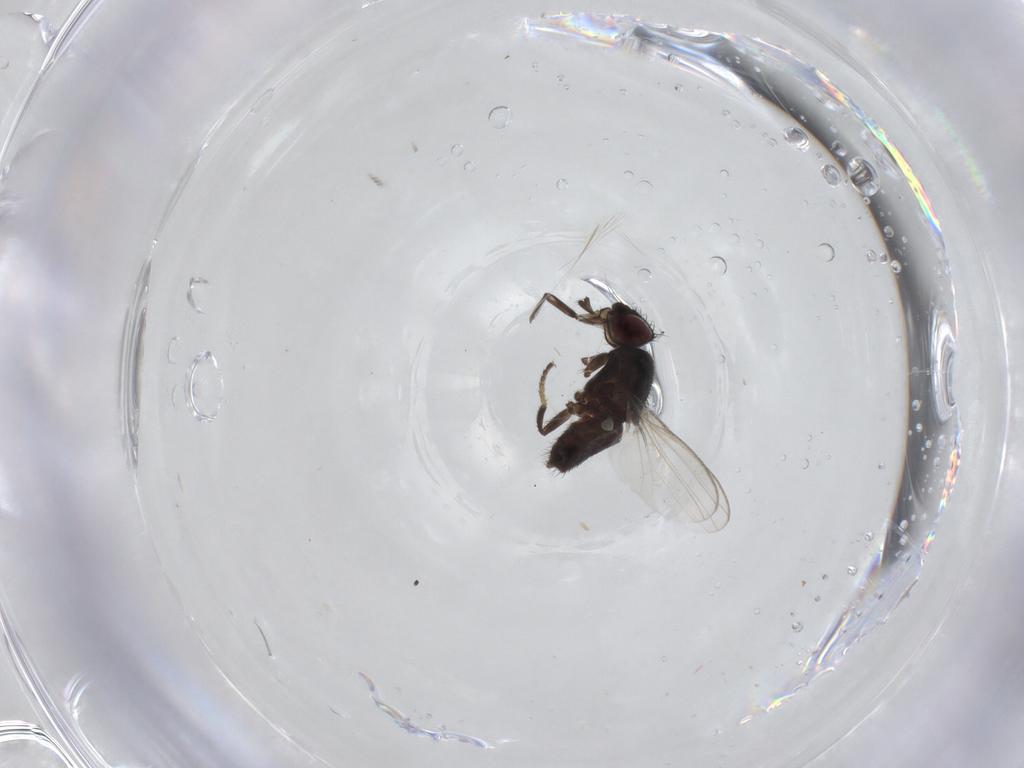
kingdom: Animalia
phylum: Arthropoda
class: Insecta
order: Diptera
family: Milichiidae
